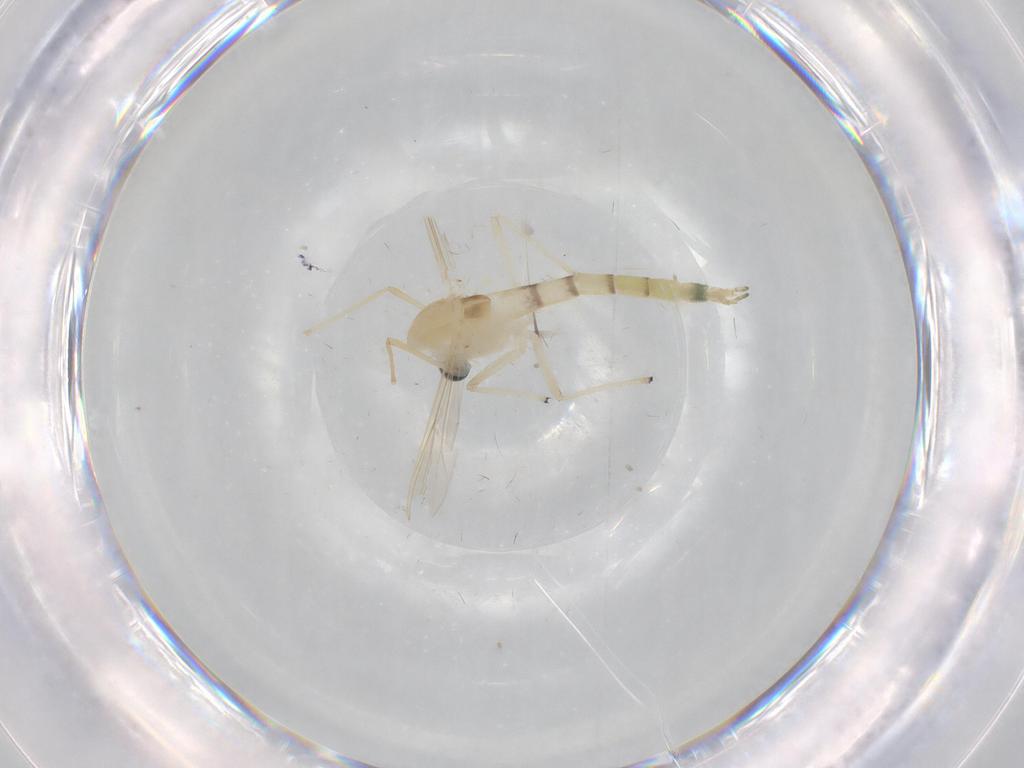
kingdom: Animalia
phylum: Arthropoda
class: Insecta
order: Diptera
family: Chironomidae
